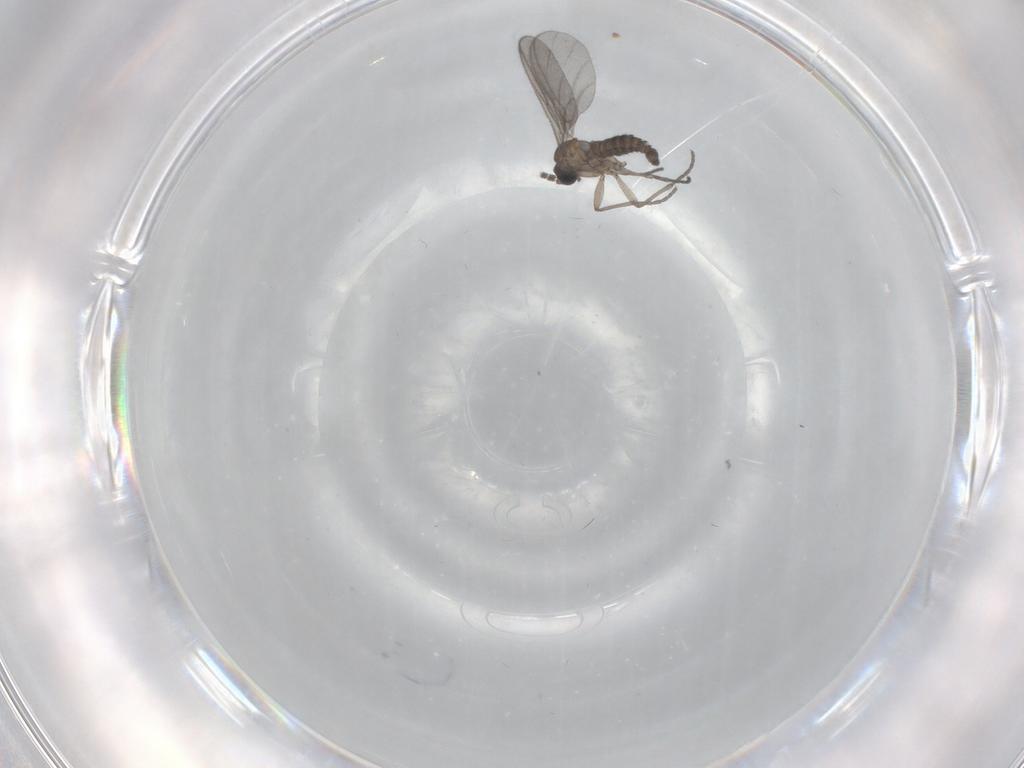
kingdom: Animalia
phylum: Arthropoda
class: Insecta
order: Diptera
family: Sciaridae
